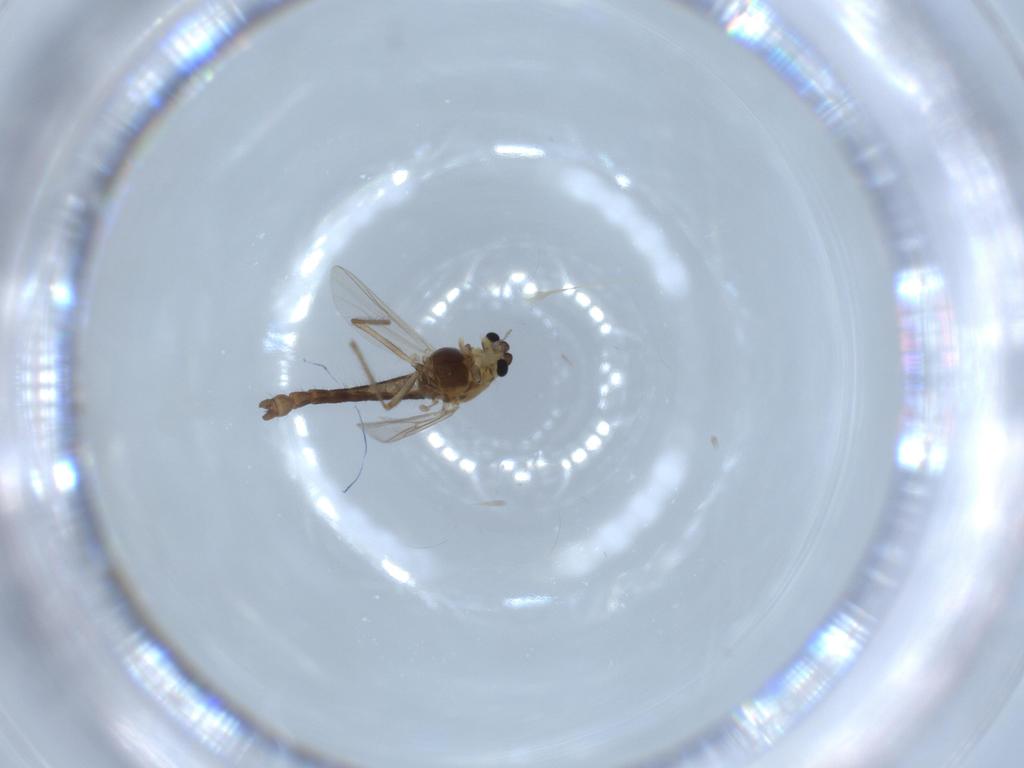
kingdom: Animalia
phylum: Arthropoda
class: Insecta
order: Diptera
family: Chironomidae
